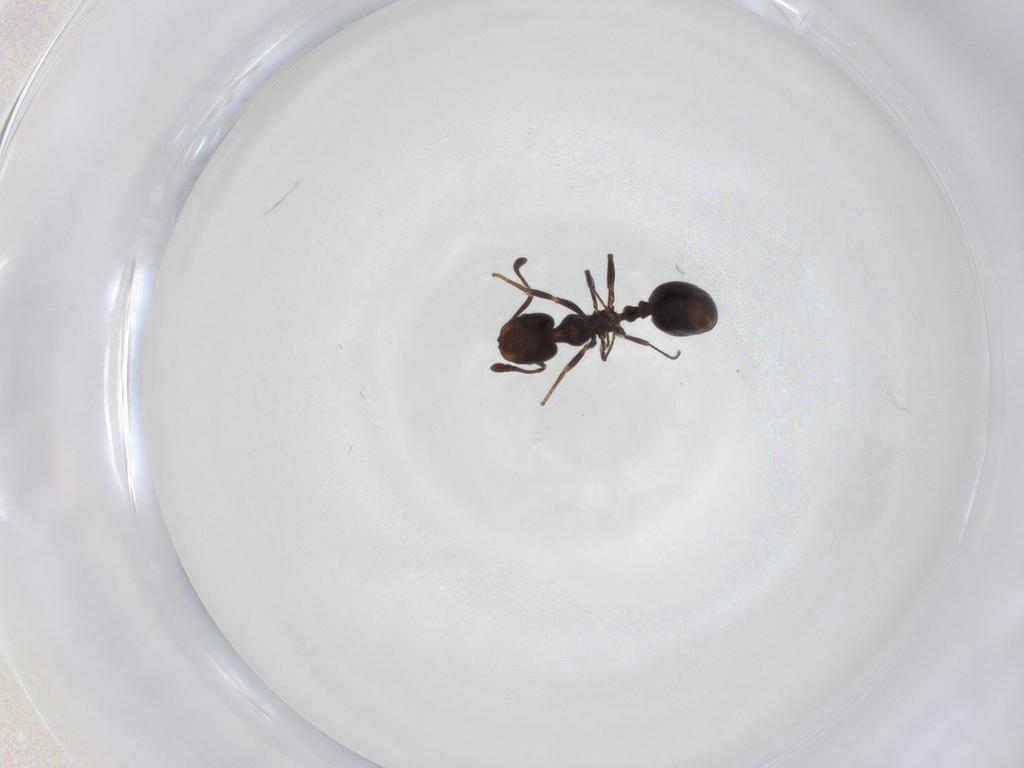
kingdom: Animalia
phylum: Arthropoda
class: Insecta
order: Hymenoptera
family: Formicidae
